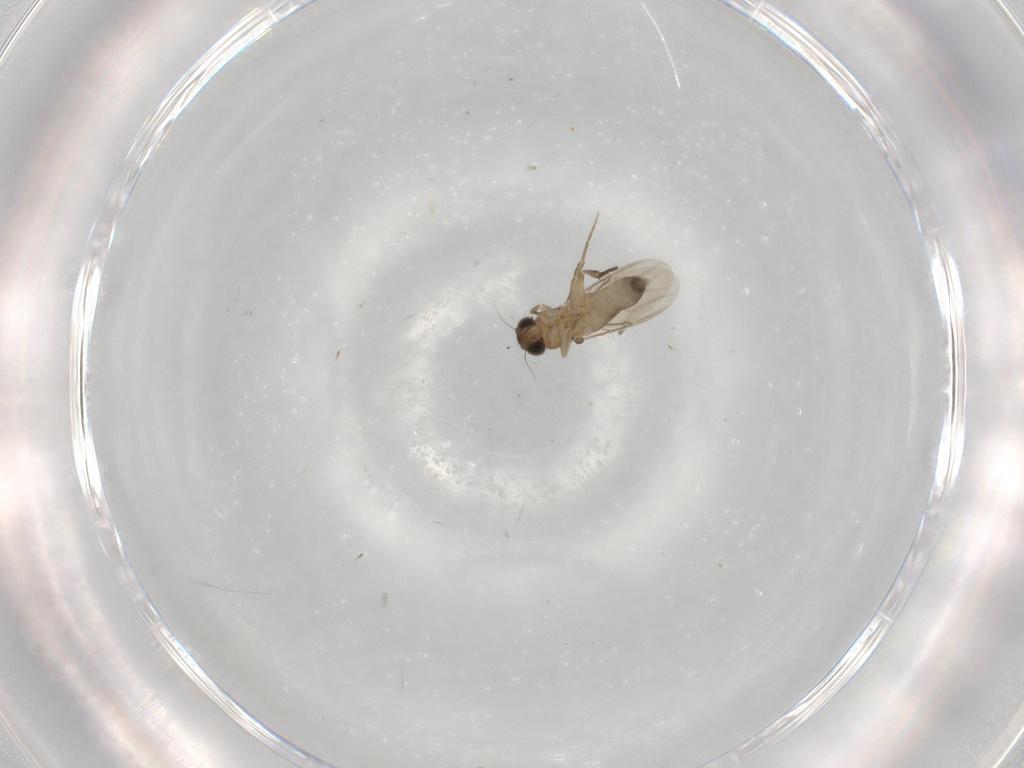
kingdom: Animalia
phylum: Arthropoda
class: Insecta
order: Diptera
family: Phoridae
